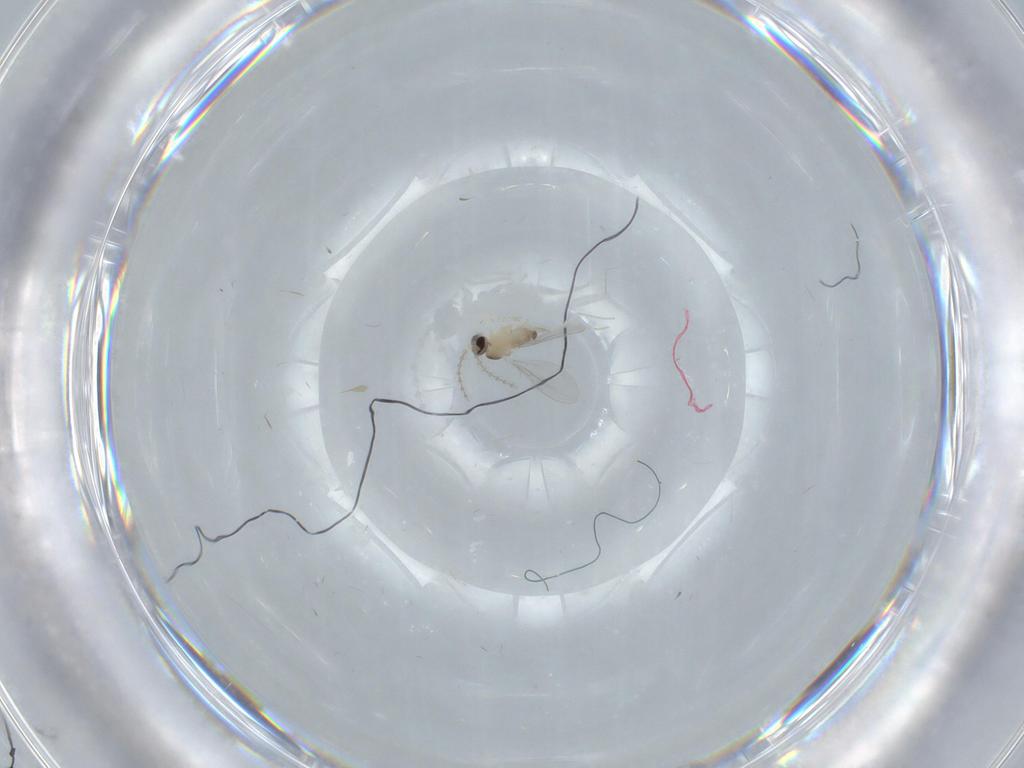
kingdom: Animalia
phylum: Arthropoda
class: Insecta
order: Diptera
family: Cecidomyiidae
